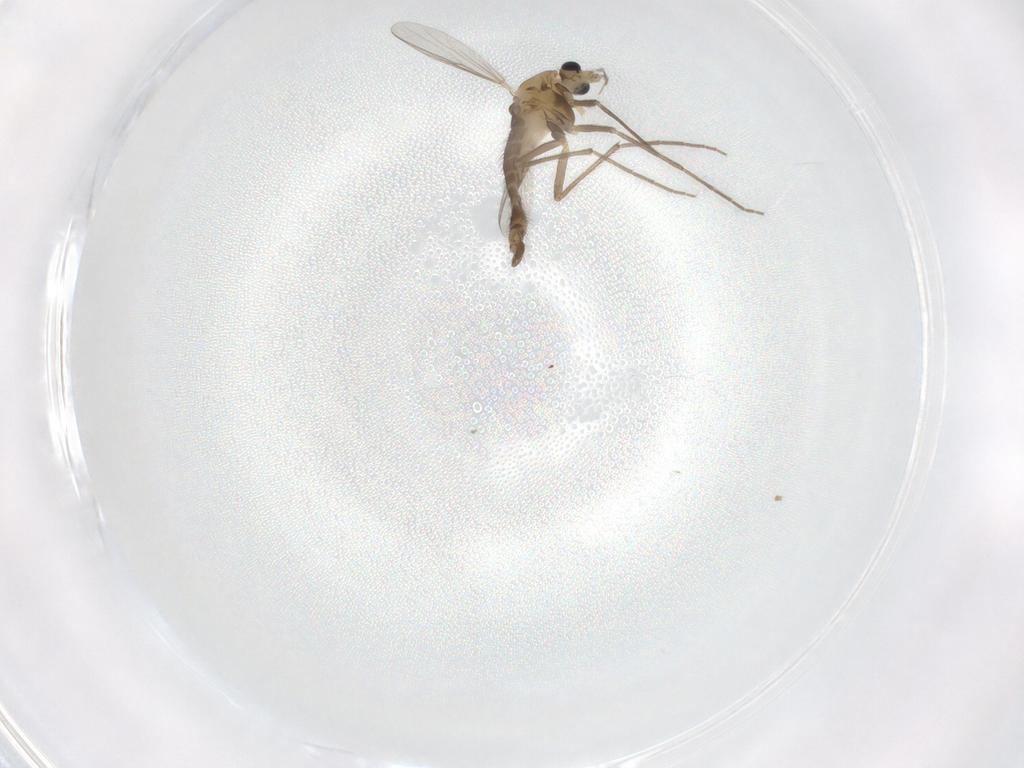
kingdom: Animalia
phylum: Arthropoda
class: Insecta
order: Diptera
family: Chironomidae
